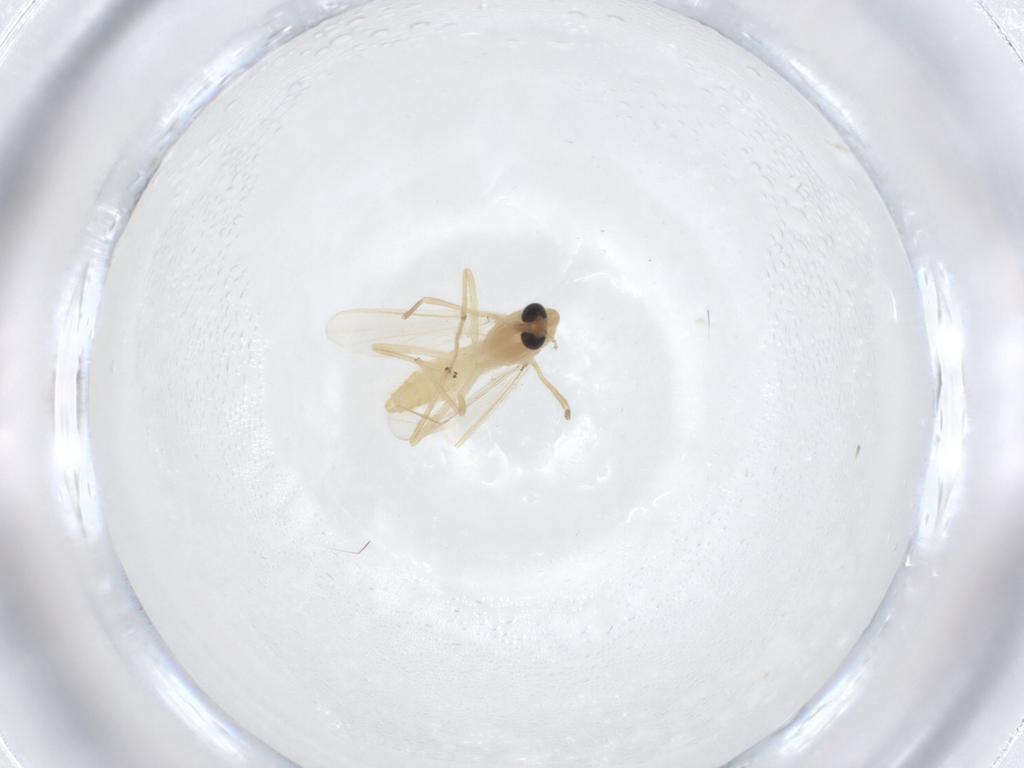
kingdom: Animalia
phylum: Arthropoda
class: Insecta
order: Diptera
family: Chironomidae
